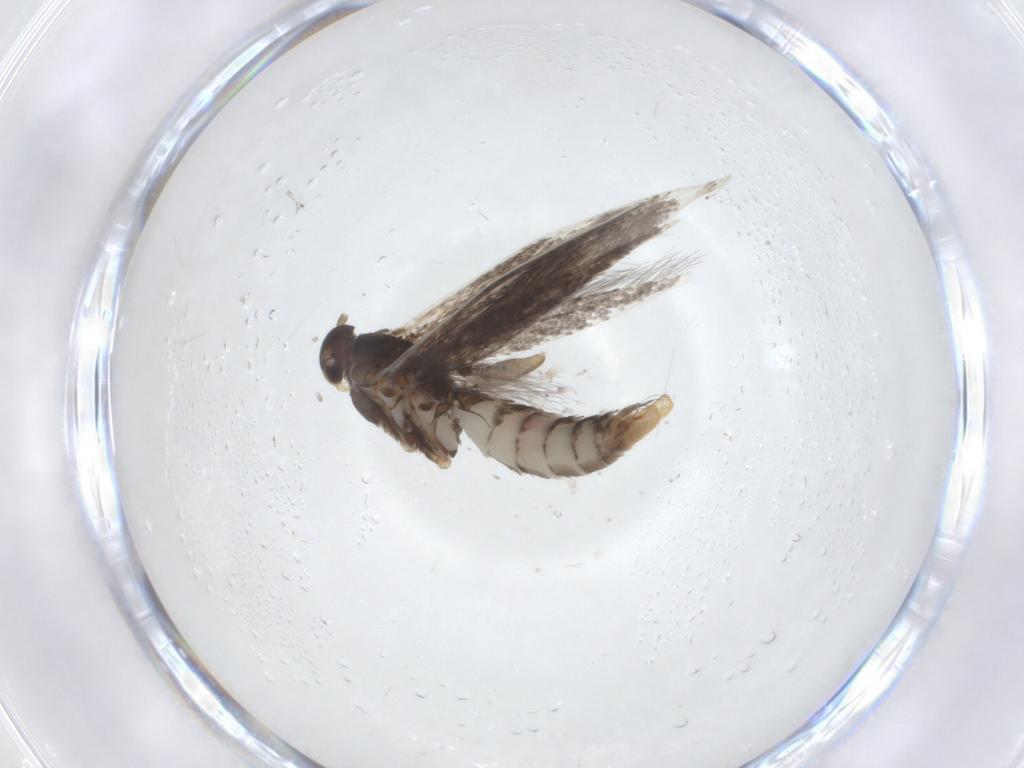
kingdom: Animalia
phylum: Arthropoda
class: Insecta
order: Lepidoptera
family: Elachistidae
